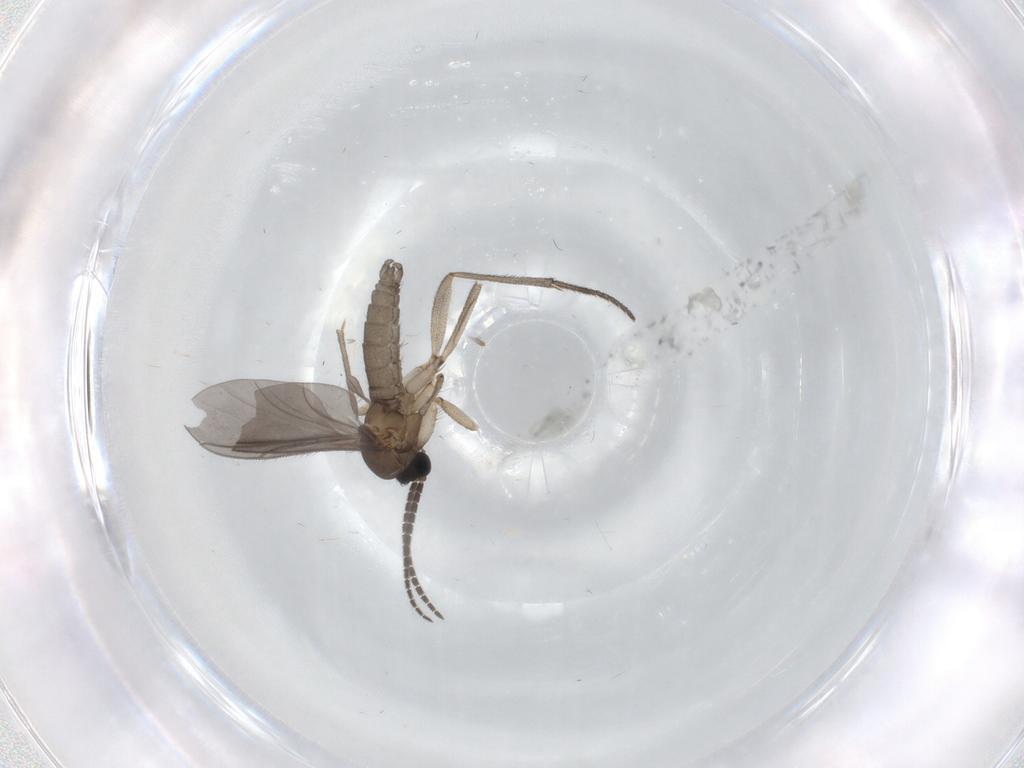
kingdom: Animalia
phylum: Arthropoda
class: Insecta
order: Diptera
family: Sciaridae
